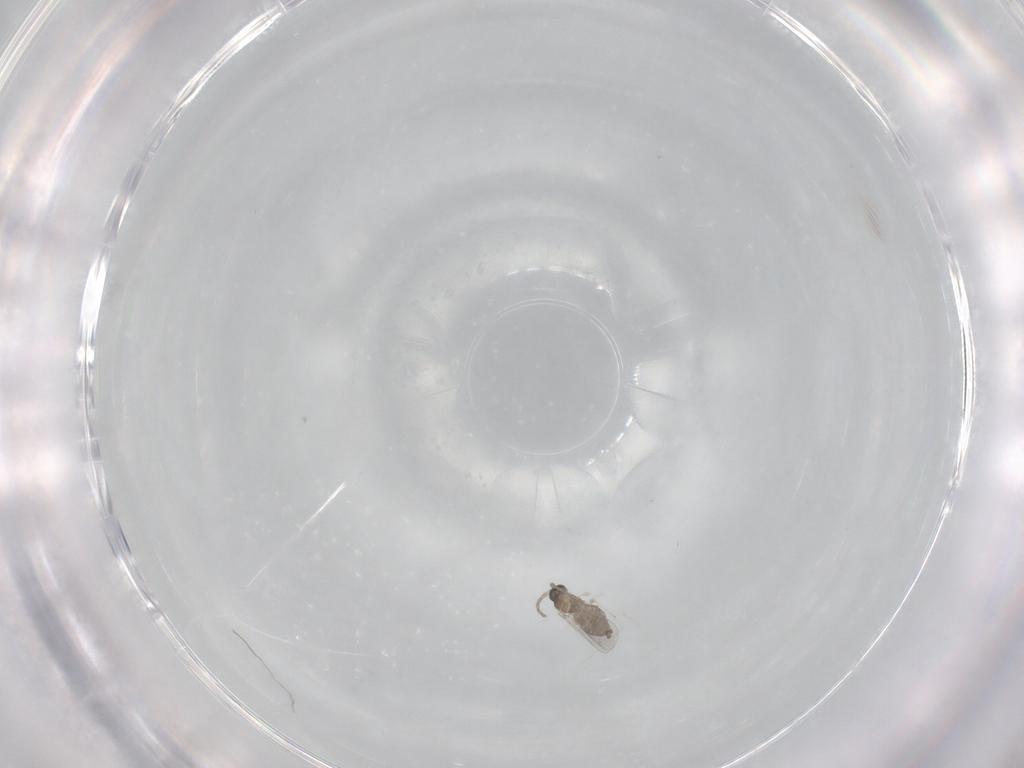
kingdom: Animalia
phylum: Arthropoda
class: Insecta
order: Diptera
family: Cecidomyiidae
